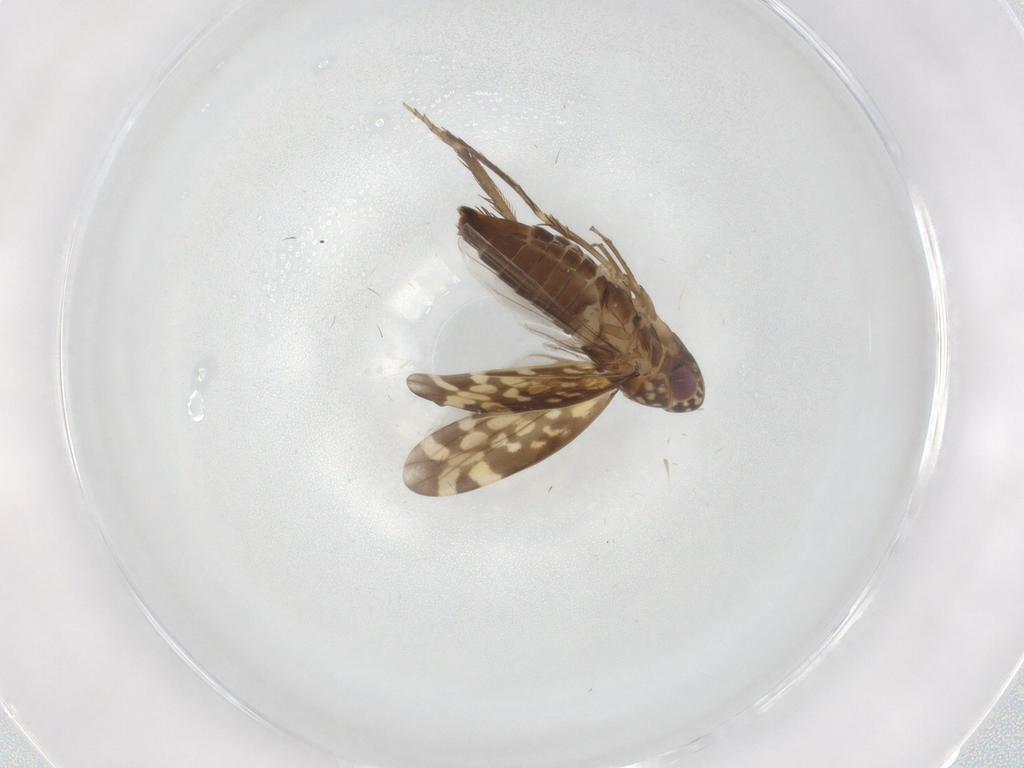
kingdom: Animalia
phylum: Arthropoda
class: Insecta
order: Hemiptera
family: Cicadellidae
